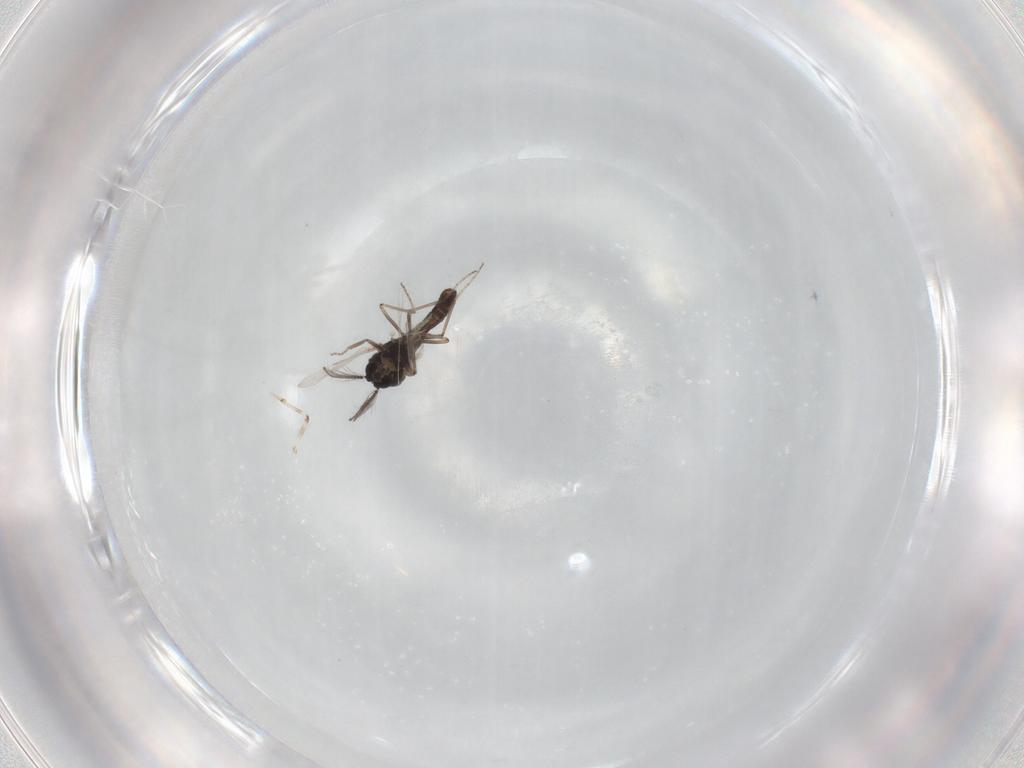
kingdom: Animalia
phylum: Arthropoda
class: Insecta
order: Diptera
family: Ceratopogonidae
